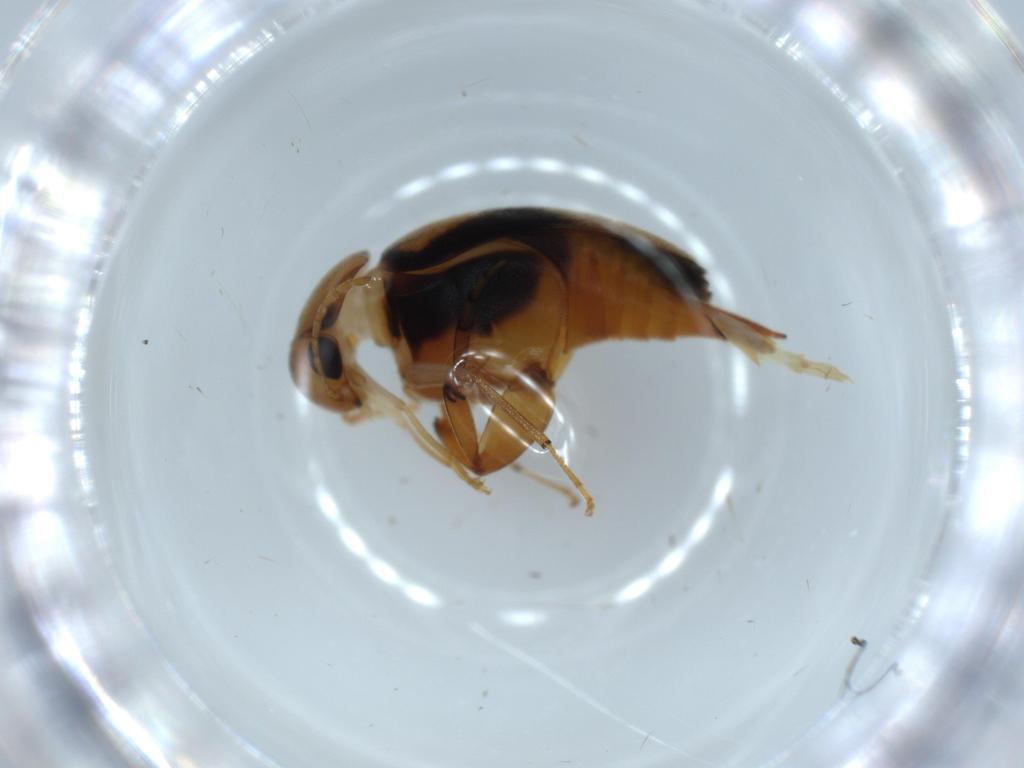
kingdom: Animalia
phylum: Arthropoda
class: Insecta
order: Coleoptera
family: Mordellidae
